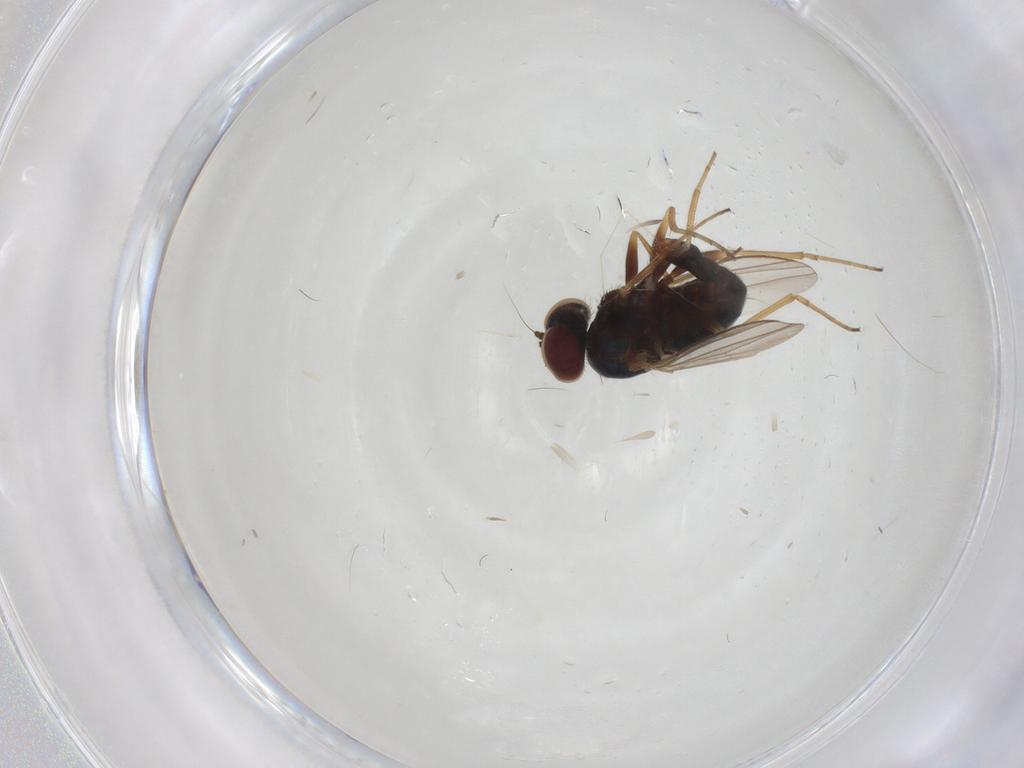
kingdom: Animalia
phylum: Arthropoda
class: Insecta
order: Diptera
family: Dolichopodidae
